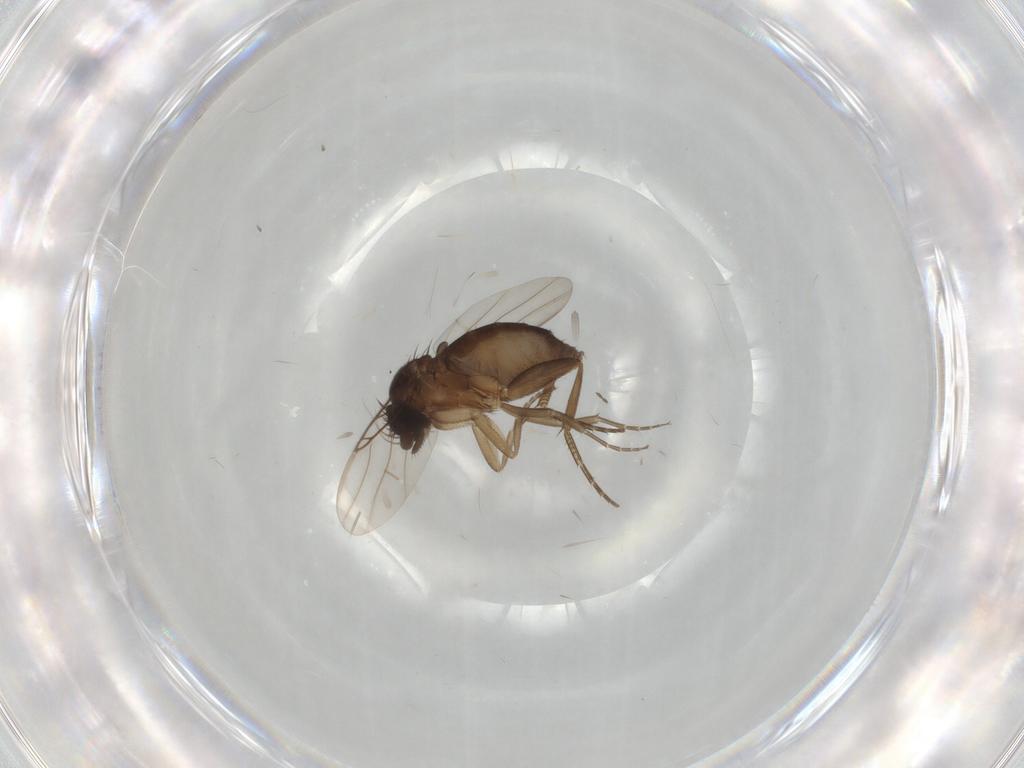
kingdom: Animalia
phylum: Arthropoda
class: Insecta
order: Diptera
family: Phoridae
